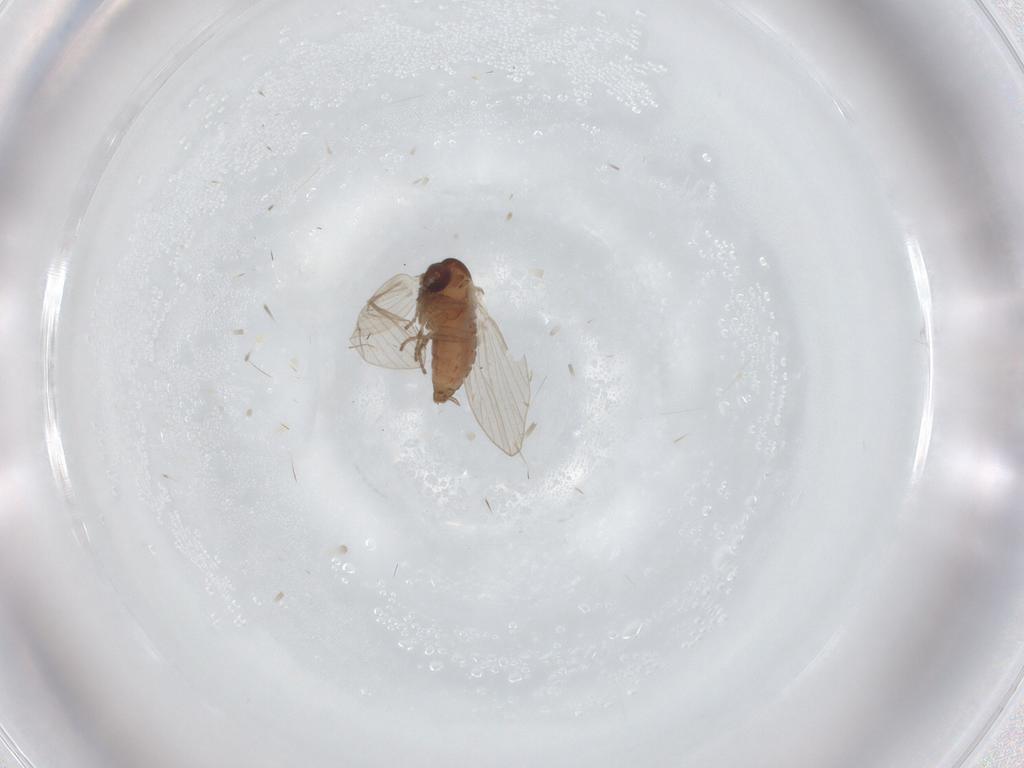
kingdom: Animalia
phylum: Arthropoda
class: Insecta
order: Diptera
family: Psychodidae
